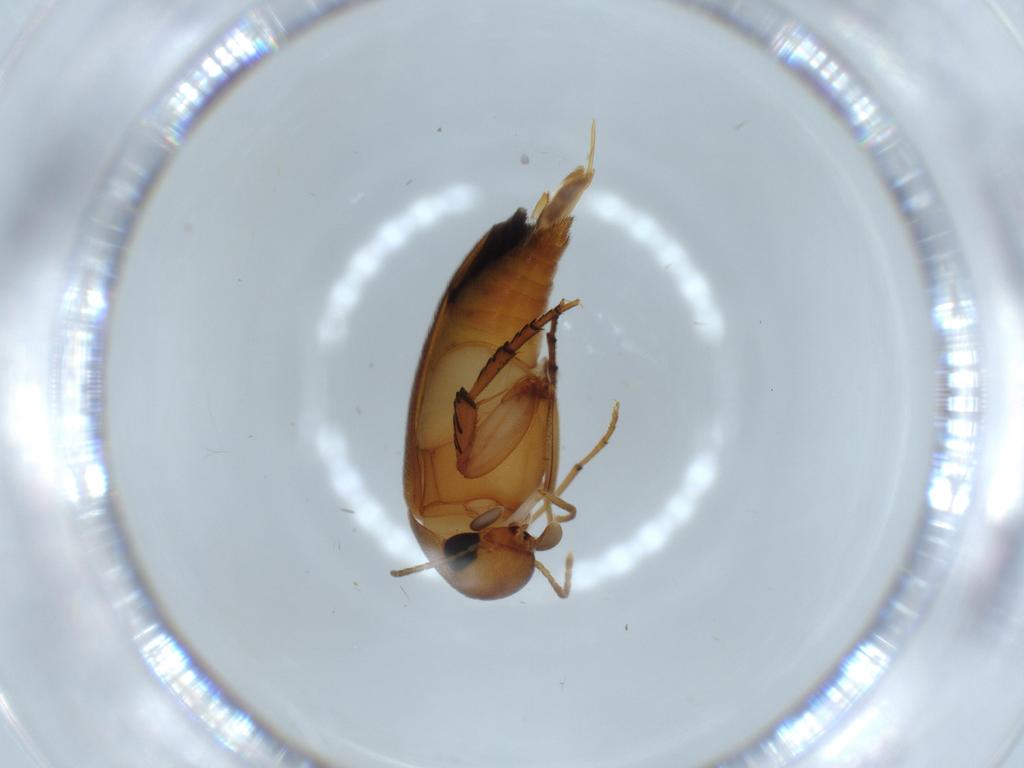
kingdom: Animalia
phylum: Arthropoda
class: Insecta
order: Coleoptera
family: Mordellidae
